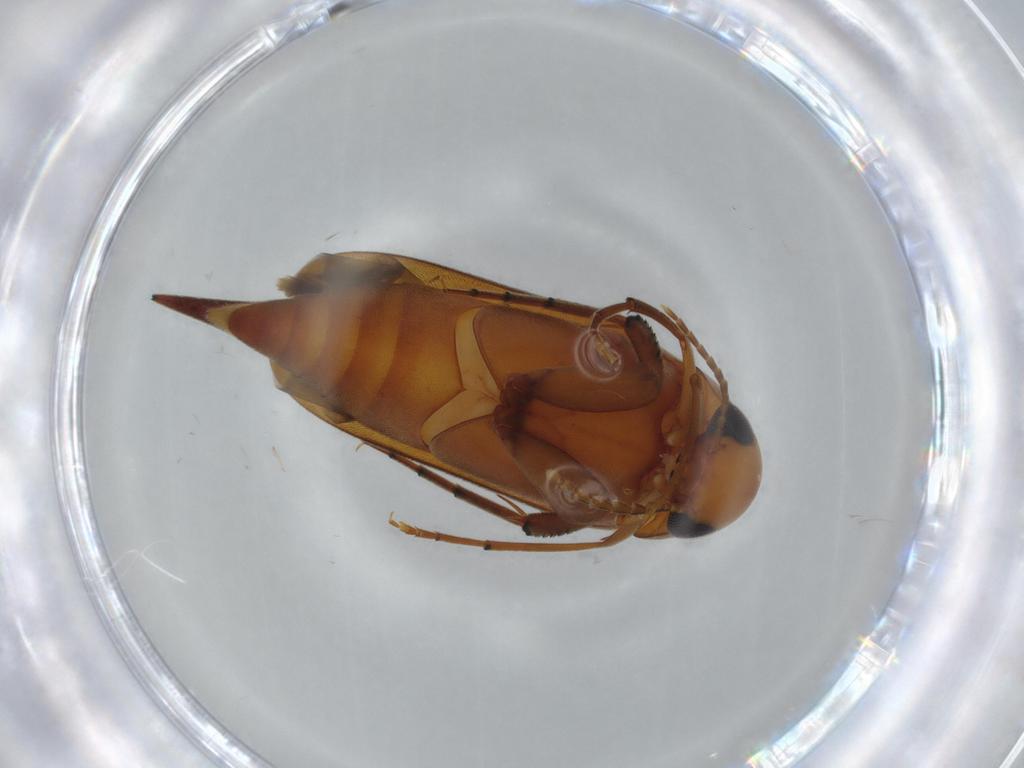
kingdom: Animalia
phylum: Arthropoda
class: Insecta
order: Coleoptera
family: Mordellidae
